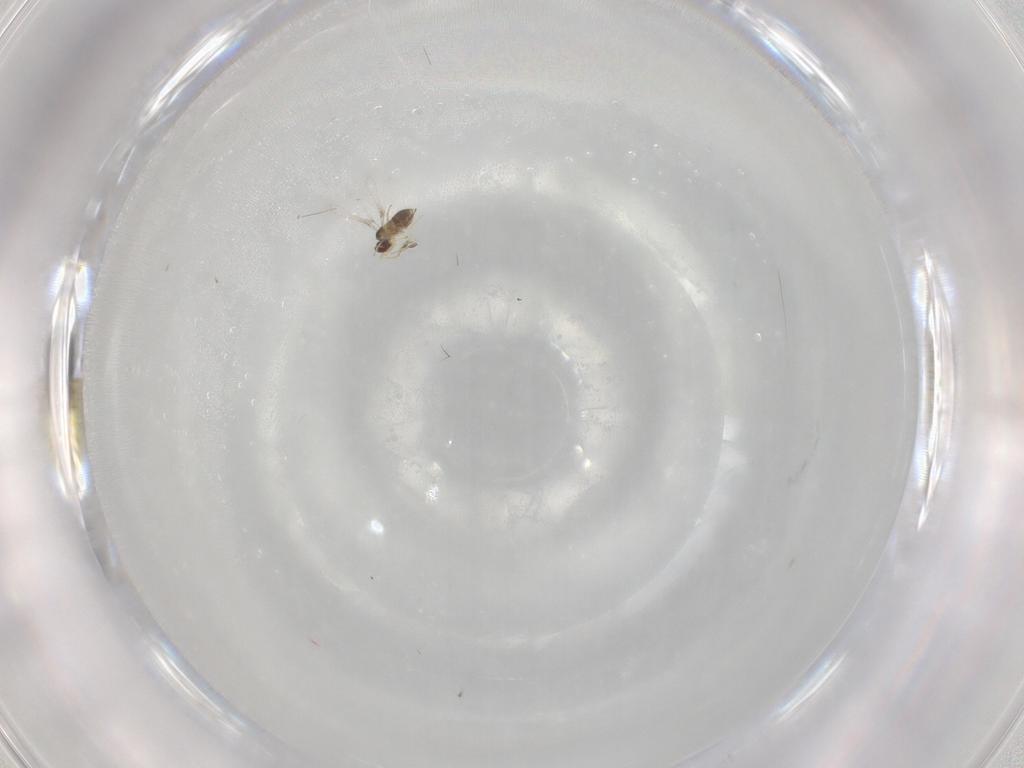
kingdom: Animalia
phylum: Arthropoda
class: Insecta
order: Hymenoptera
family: Mymaridae
